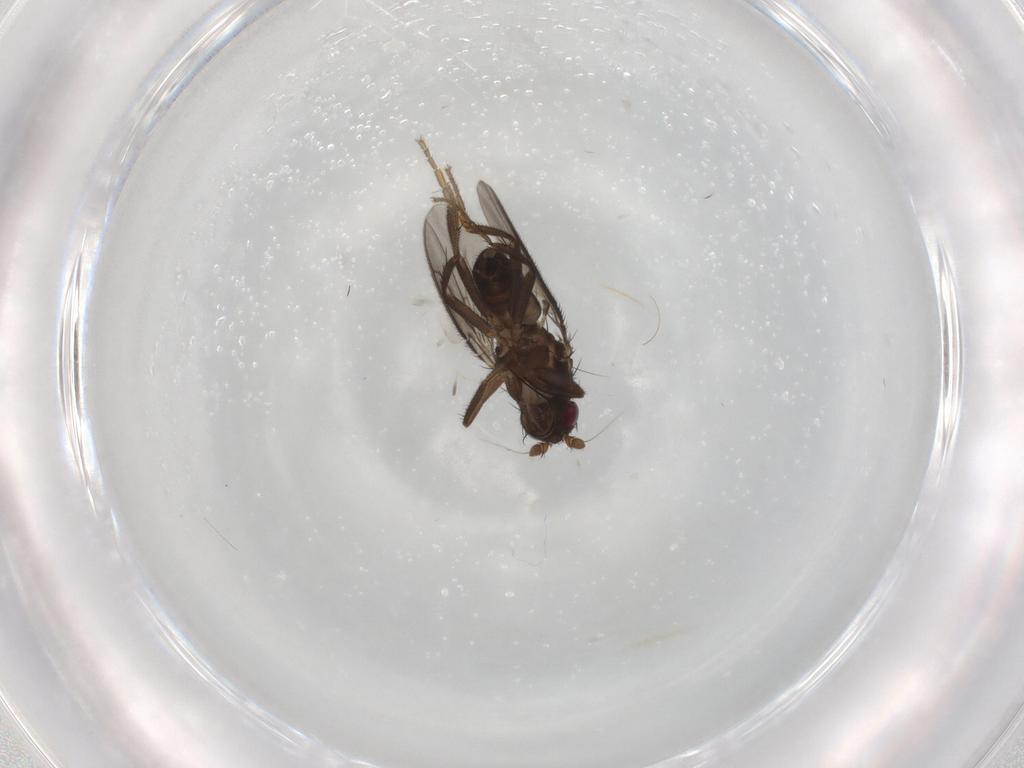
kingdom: Animalia
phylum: Arthropoda
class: Insecta
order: Diptera
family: Sphaeroceridae
